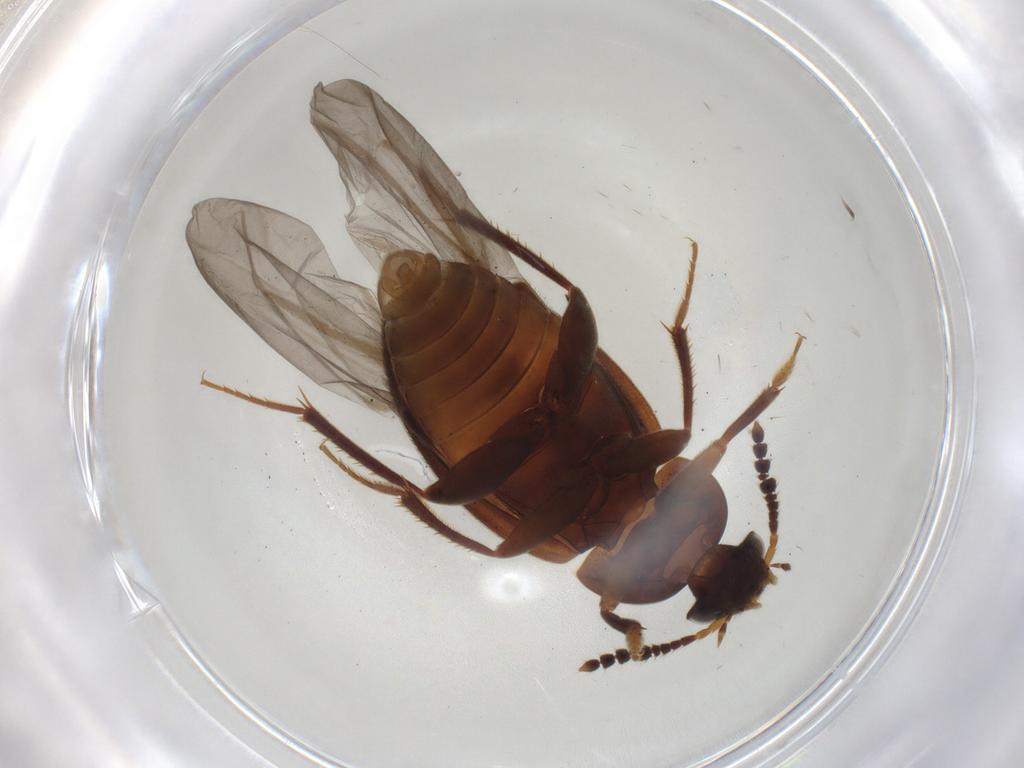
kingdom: Animalia
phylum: Arthropoda
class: Insecta
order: Coleoptera
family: Leiodidae
